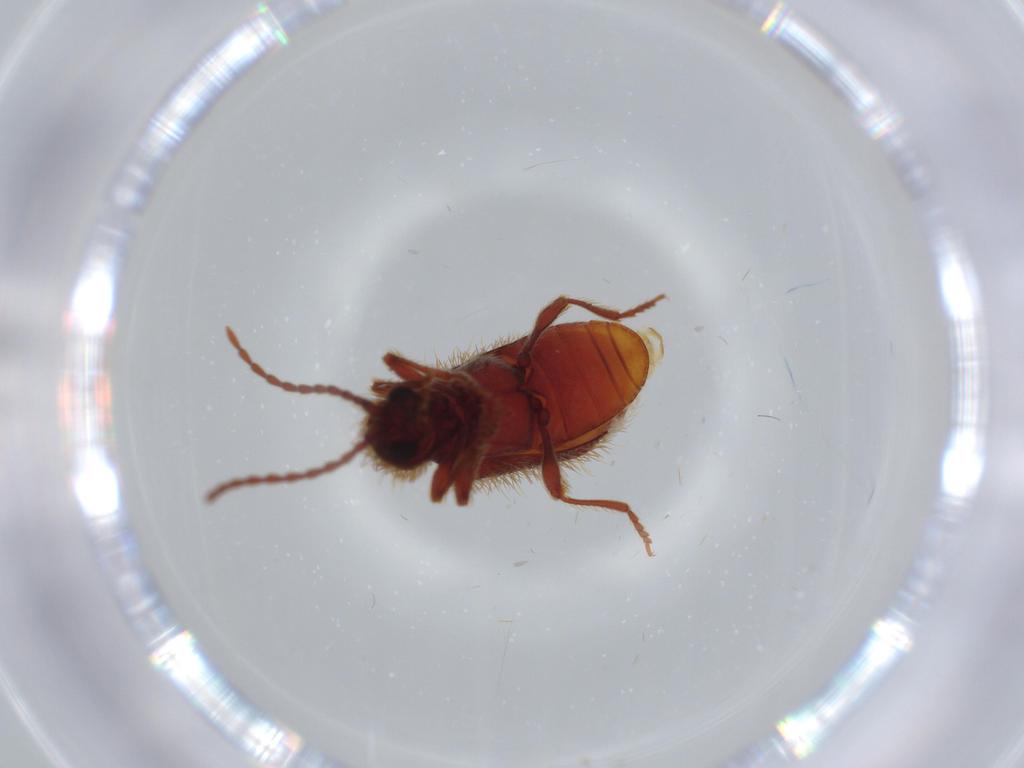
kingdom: Animalia
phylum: Arthropoda
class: Insecta
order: Coleoptera
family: Ptinidae
